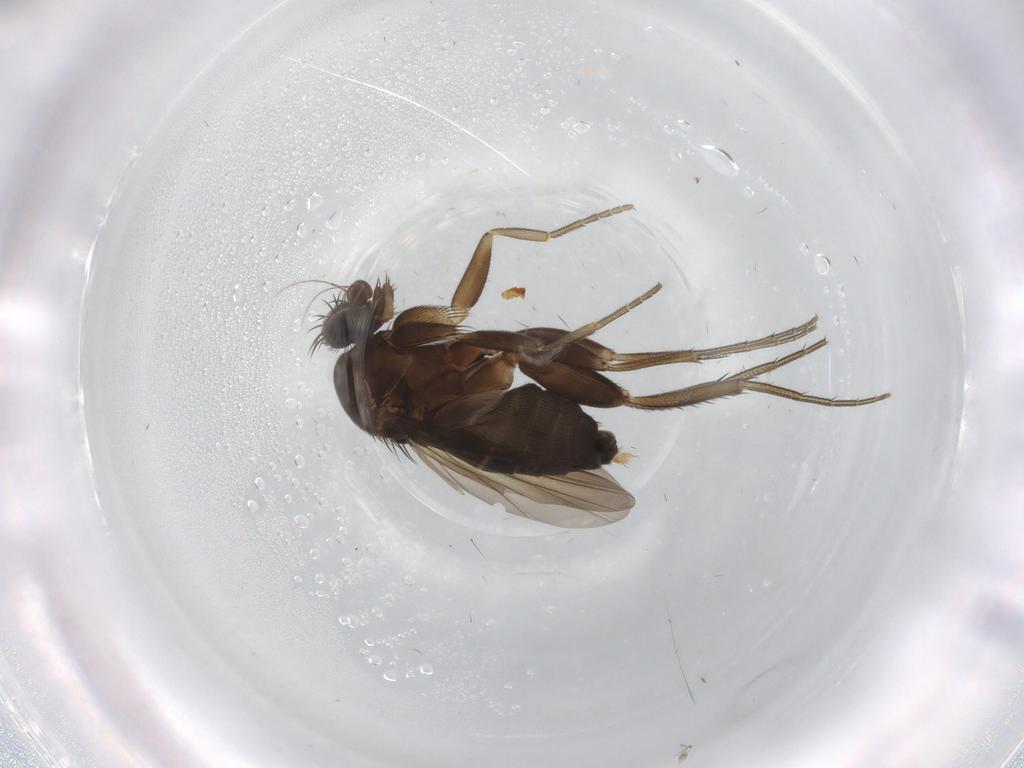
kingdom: Animalia
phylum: Arthropoda
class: Insecta
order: Diptera
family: Phoridae
